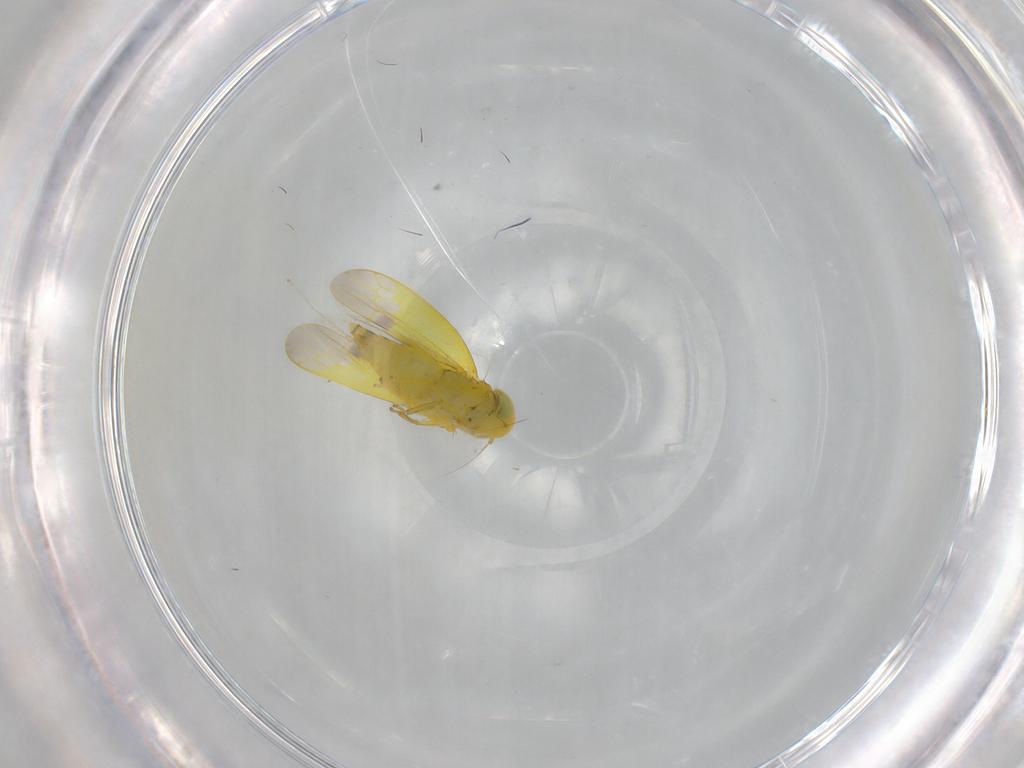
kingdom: Animalia
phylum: Arthropoda
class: Insecta
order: Hemiptera
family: Cicadellidae
